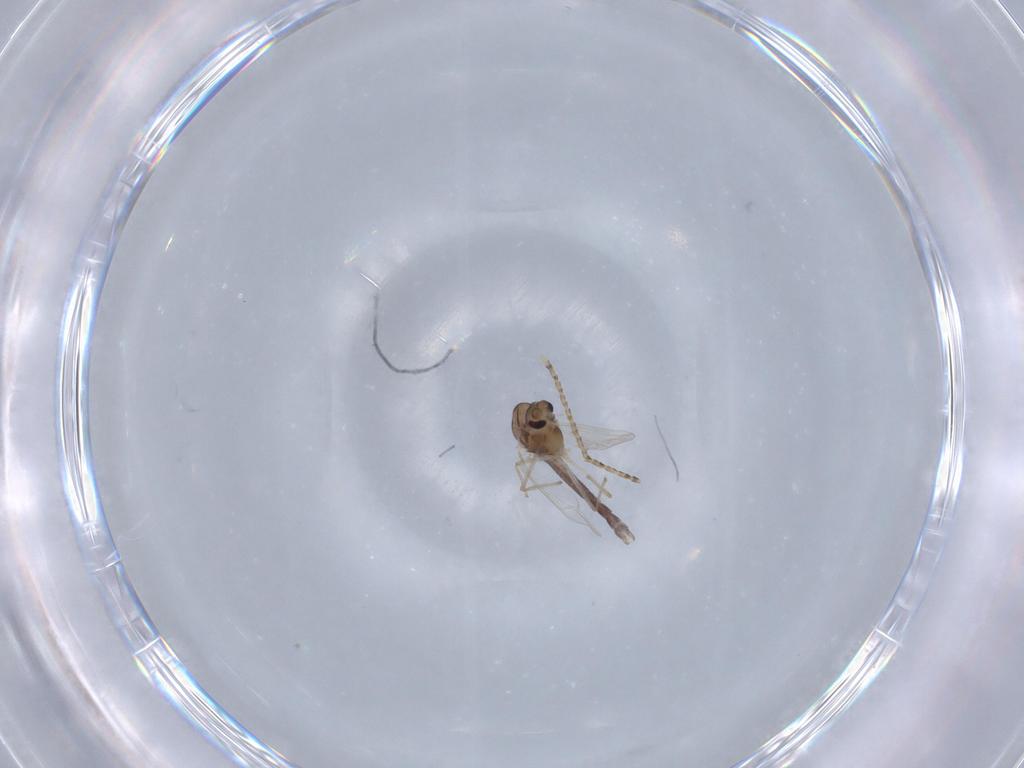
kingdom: Animalia
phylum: Arthropoda
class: Insecta
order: Diptera
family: Chironomidae
